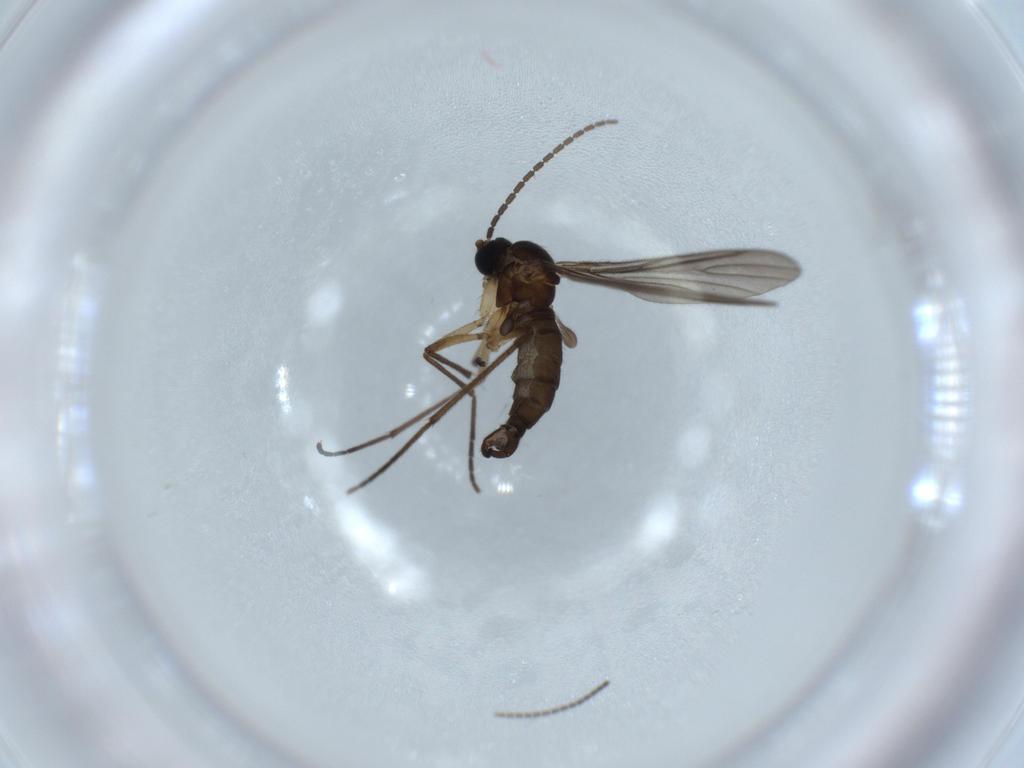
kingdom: Animalia
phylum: Arthropoda
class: Insecta
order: Diptera
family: Sciaridae
